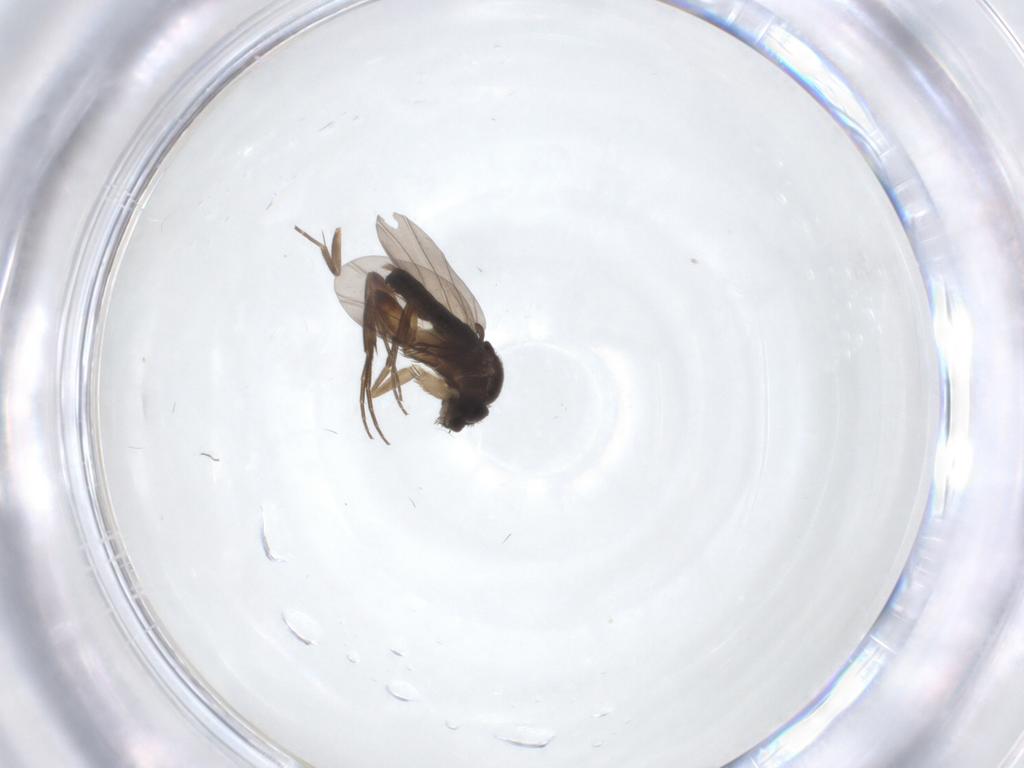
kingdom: Animalia
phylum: Arthropoda
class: Insecta
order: Diptera
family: Phoridae
